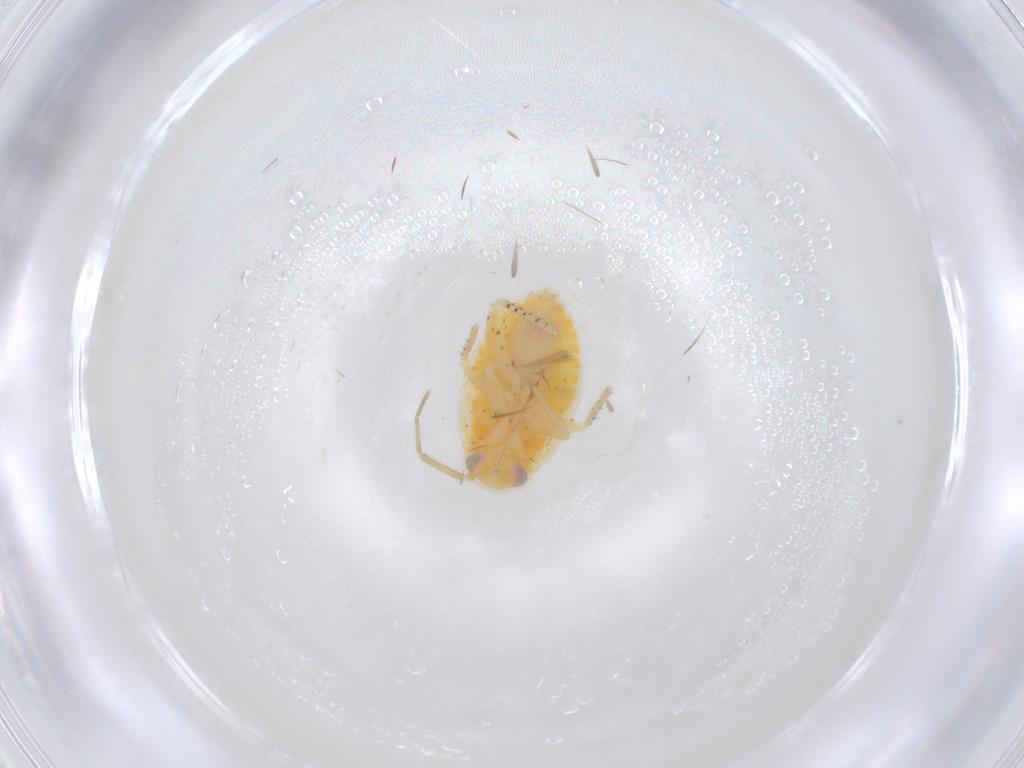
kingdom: Animalia
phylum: Arthropoda
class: Insecta
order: Hemiptera
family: Miridae
